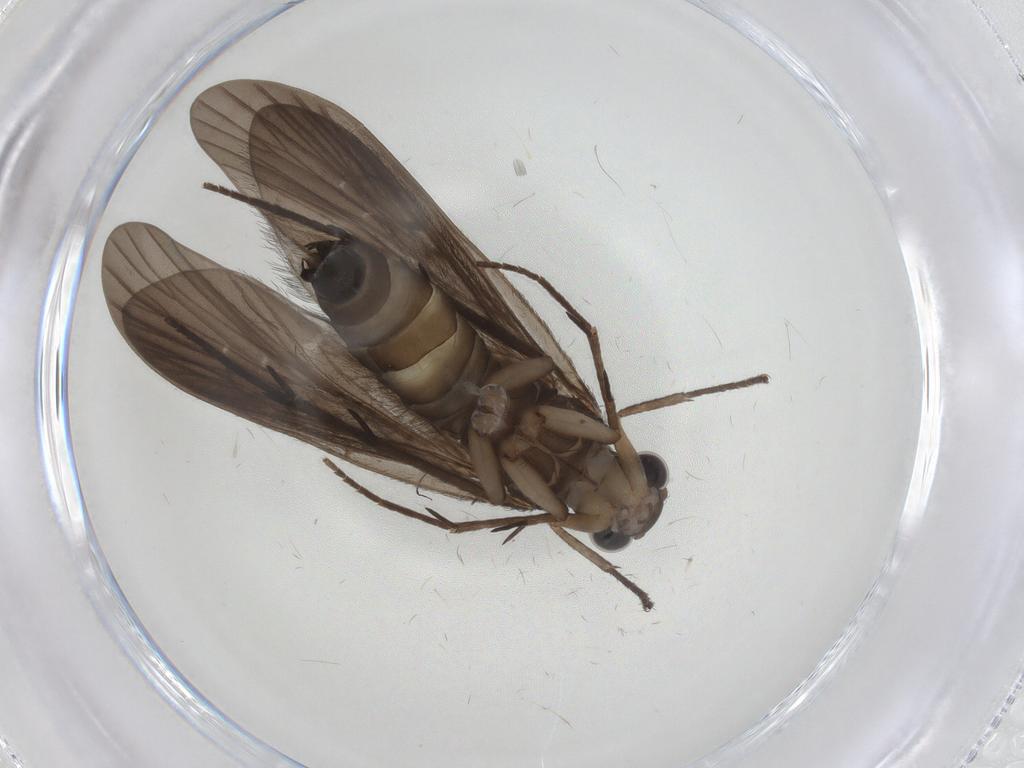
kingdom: Animalia
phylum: Arthropoda
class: Insecta
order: Trichoptera
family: Philopotamidae
